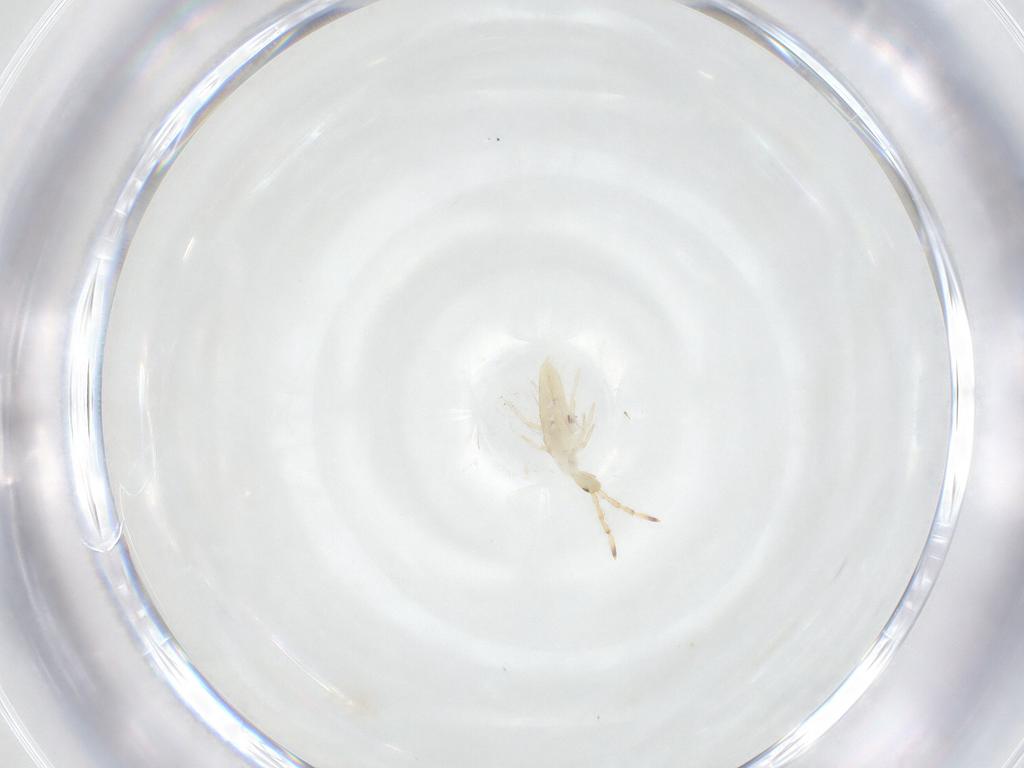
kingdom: Animalia
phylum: Arthropoda
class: Collembola
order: Entomobryomorpha
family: Entomobryidae
